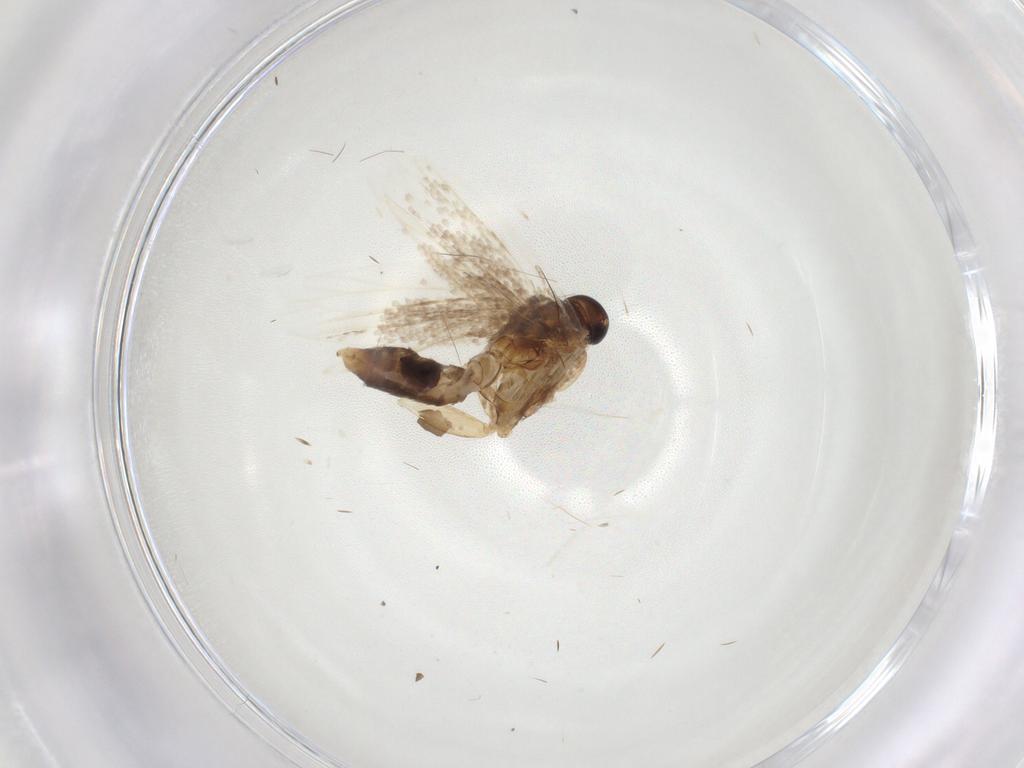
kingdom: Animalia
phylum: Arthropoda
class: Insecta
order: Lepidoptera
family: Gelechiidae
